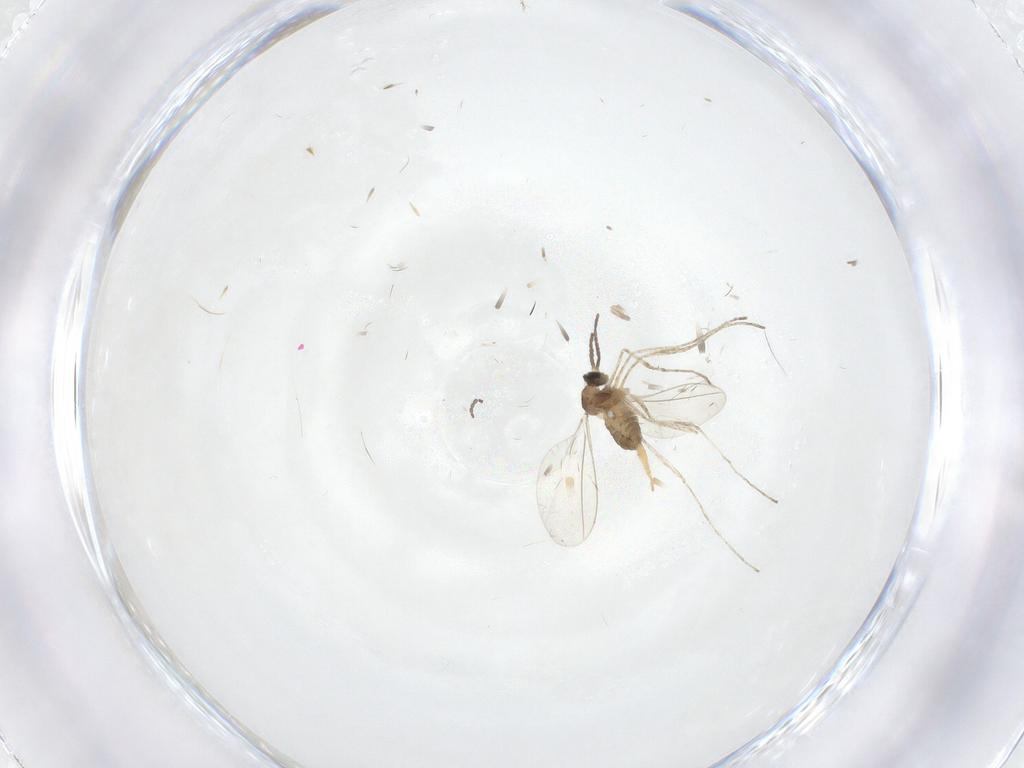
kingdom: Animalia
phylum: Arthropoda
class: Insecta
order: Diptera
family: Cecidomyiidae
